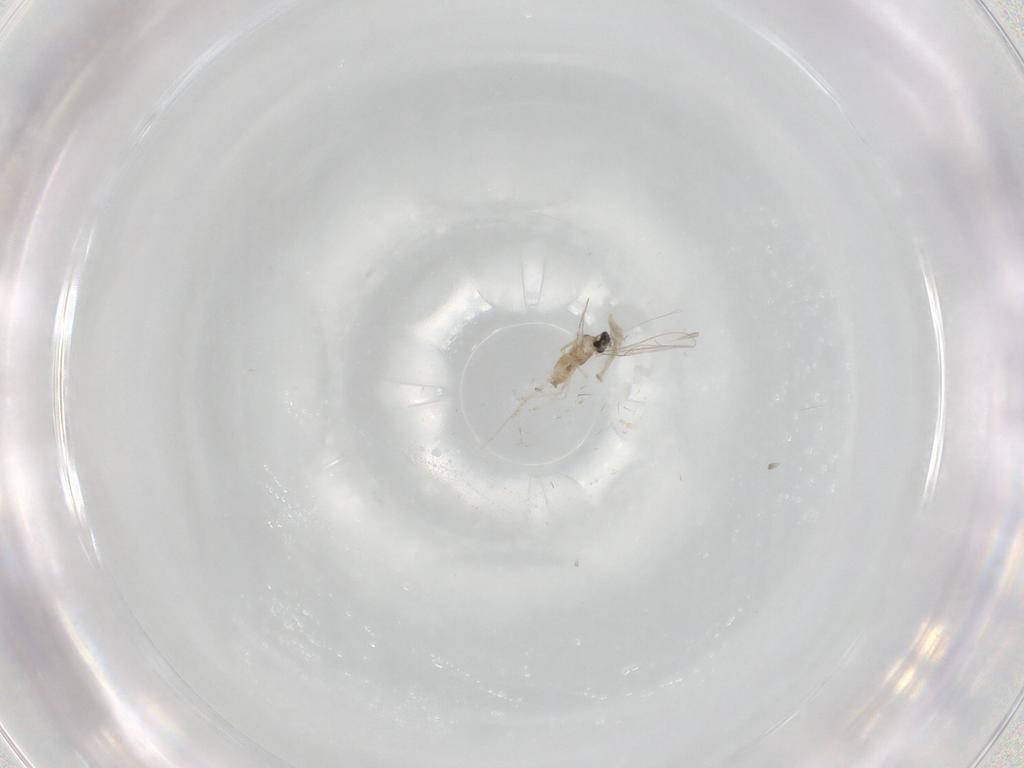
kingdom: Animalia
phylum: Arthropoda
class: Insecta
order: Diptera
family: Cecidomyiidae
